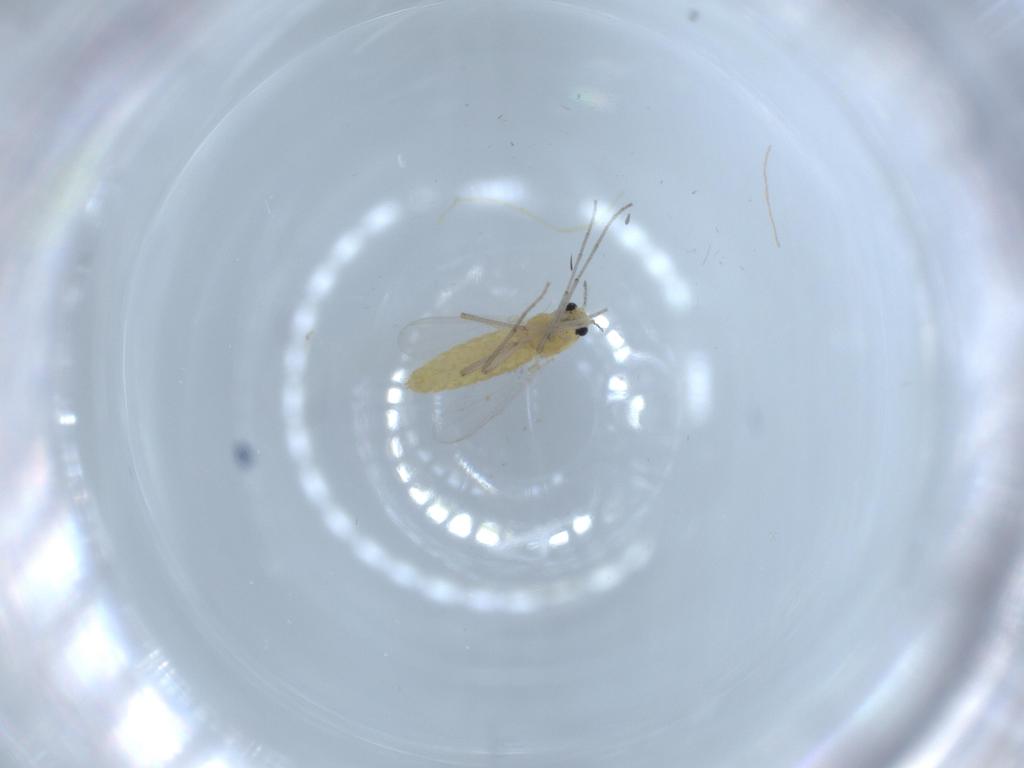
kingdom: Animalia
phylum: Arthropoda
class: Insecta
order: Diptera
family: Chironomidae
